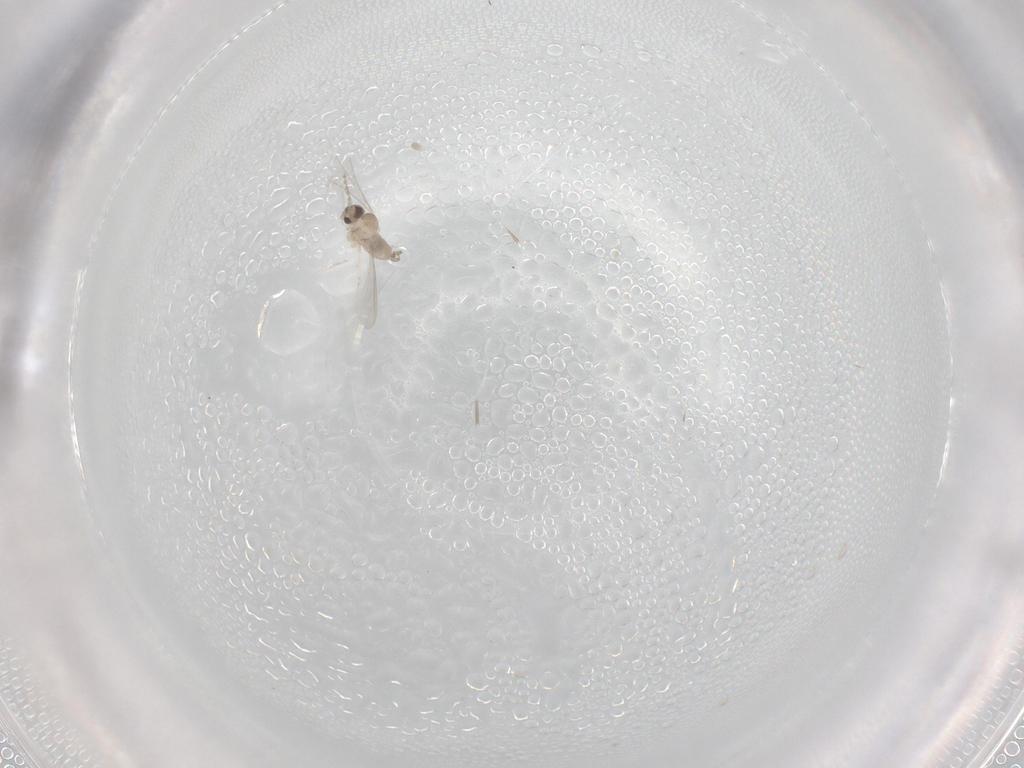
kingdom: Animalia
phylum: Arthropoda
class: Insecta
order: Diptera
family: Cecidomyiidae
